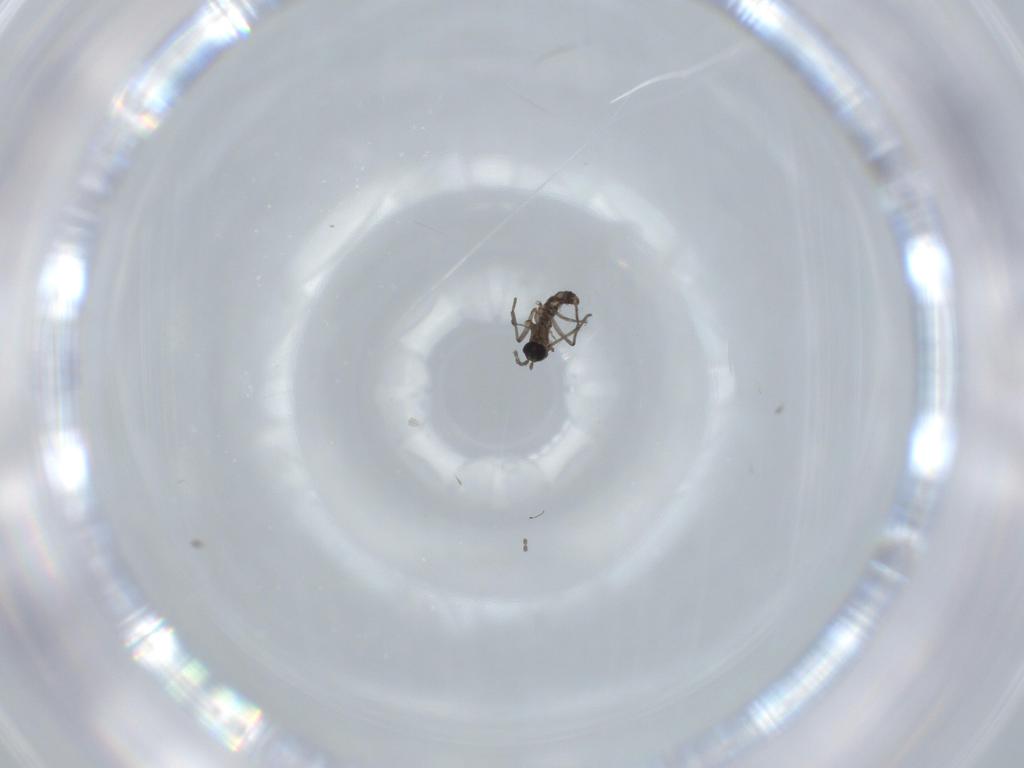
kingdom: Animalia
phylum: Arthropoda
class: Insecta
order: Diptera
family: Sciaridae
